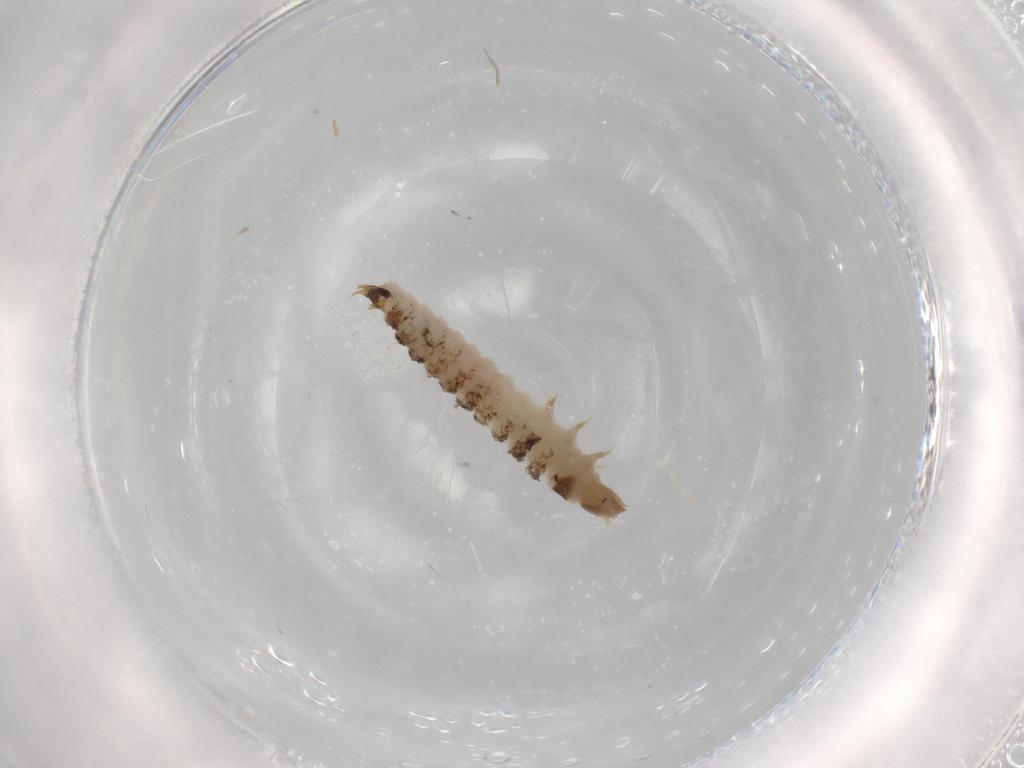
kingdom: Animalia
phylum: Arthropoda
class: Insecta
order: Coleoptera
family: Nitidulidae
